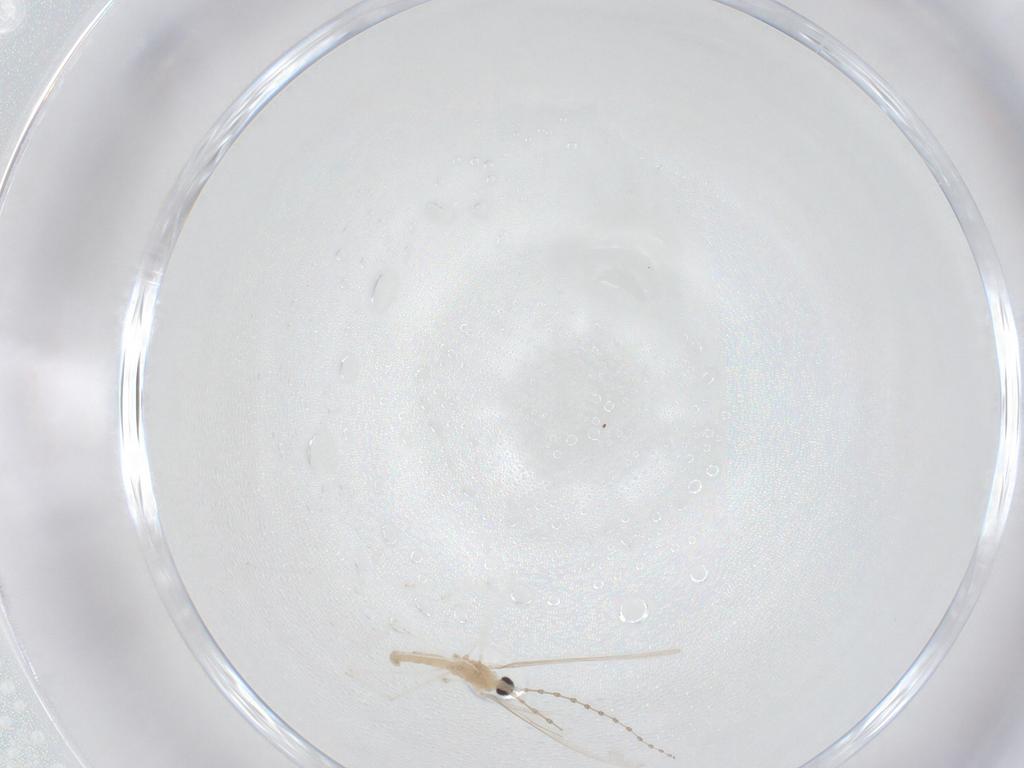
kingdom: Animalia
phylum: Arthropoda
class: Insecta
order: Diptera
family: Cecidomyiidae
